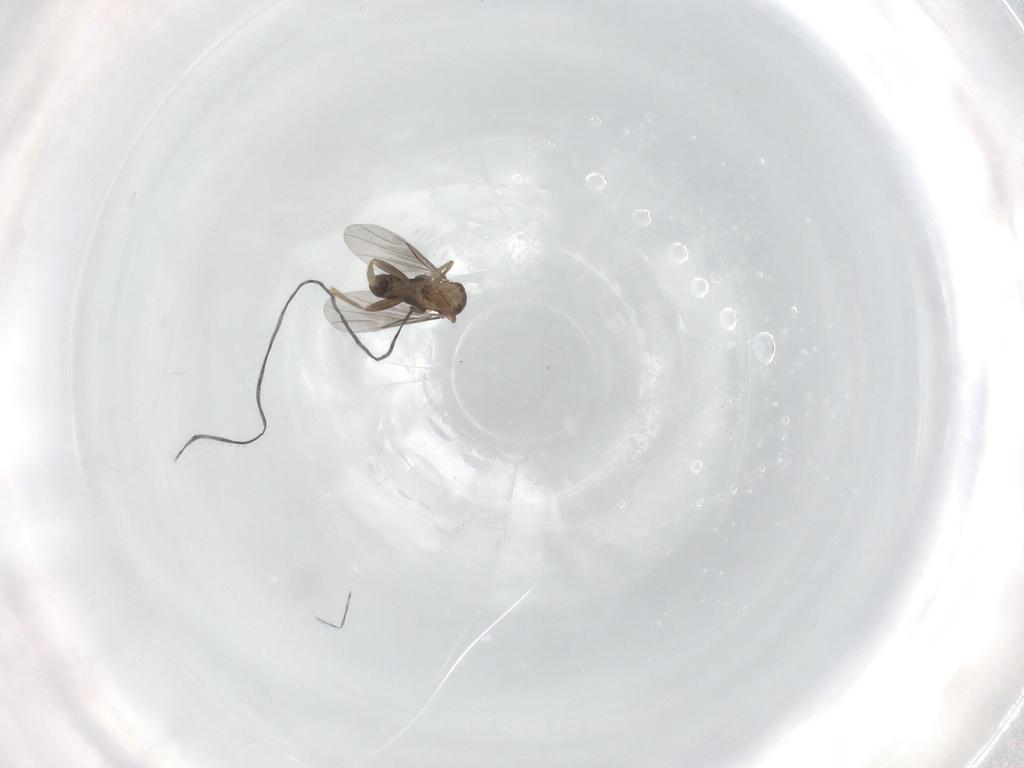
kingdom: Animalia
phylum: Arthropoda
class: Insecta
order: Diptera
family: Phoridae
